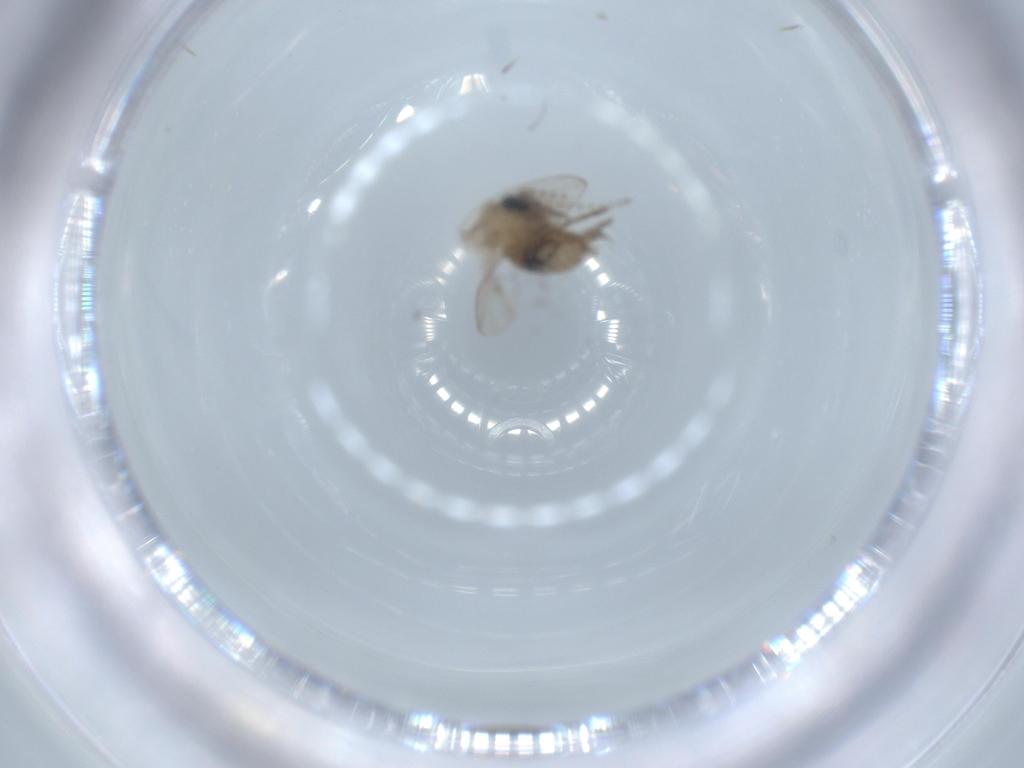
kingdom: Animalia
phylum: Arthropoda
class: Insecta
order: Diptera
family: Psychodidae
